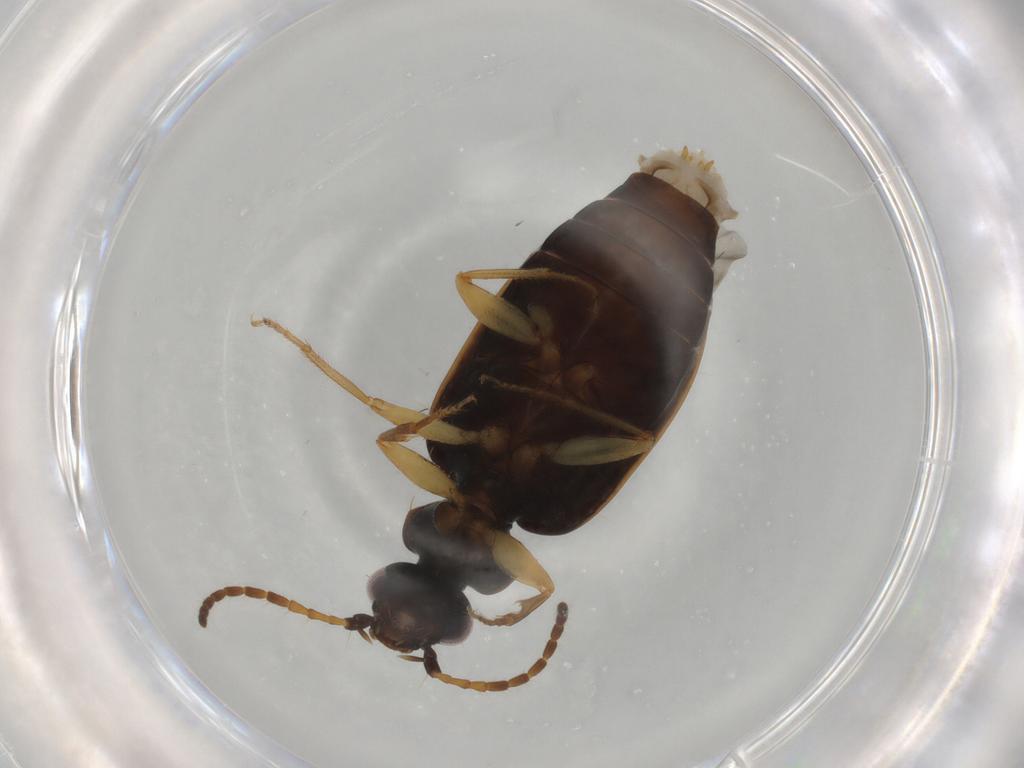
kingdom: Animalia
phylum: Arthropoda
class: Insecta
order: Coleoptera
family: Carabidae
